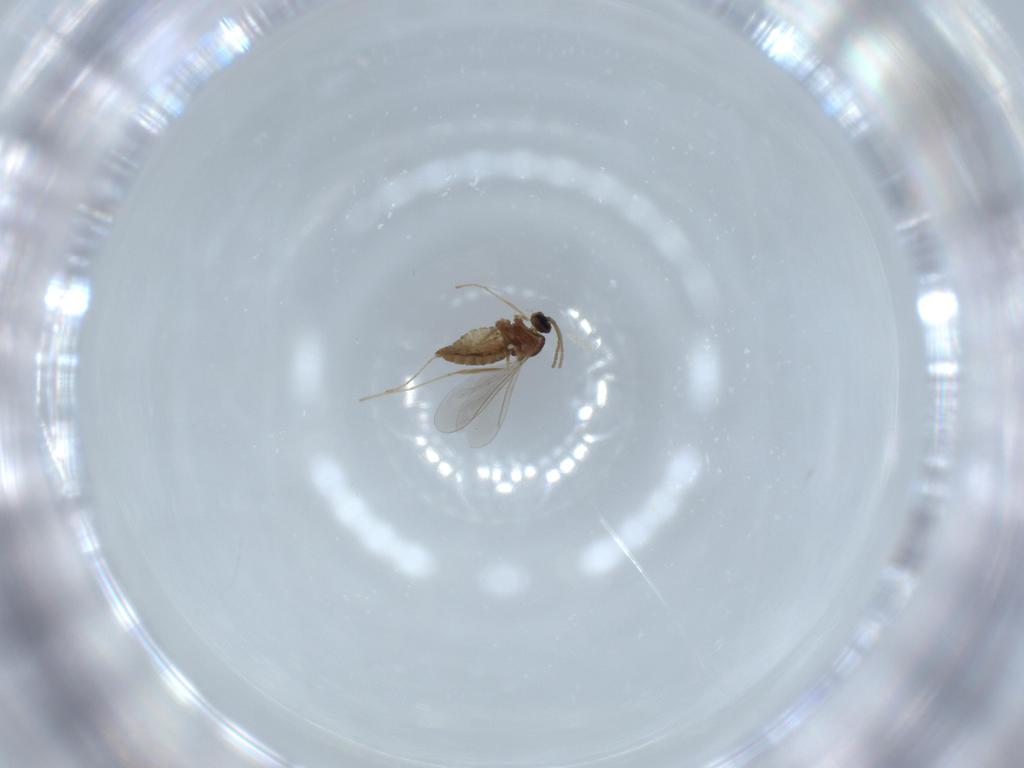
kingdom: Animalia
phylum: Arthropoda
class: Insecta
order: Diptera
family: Cecidomyiidae
